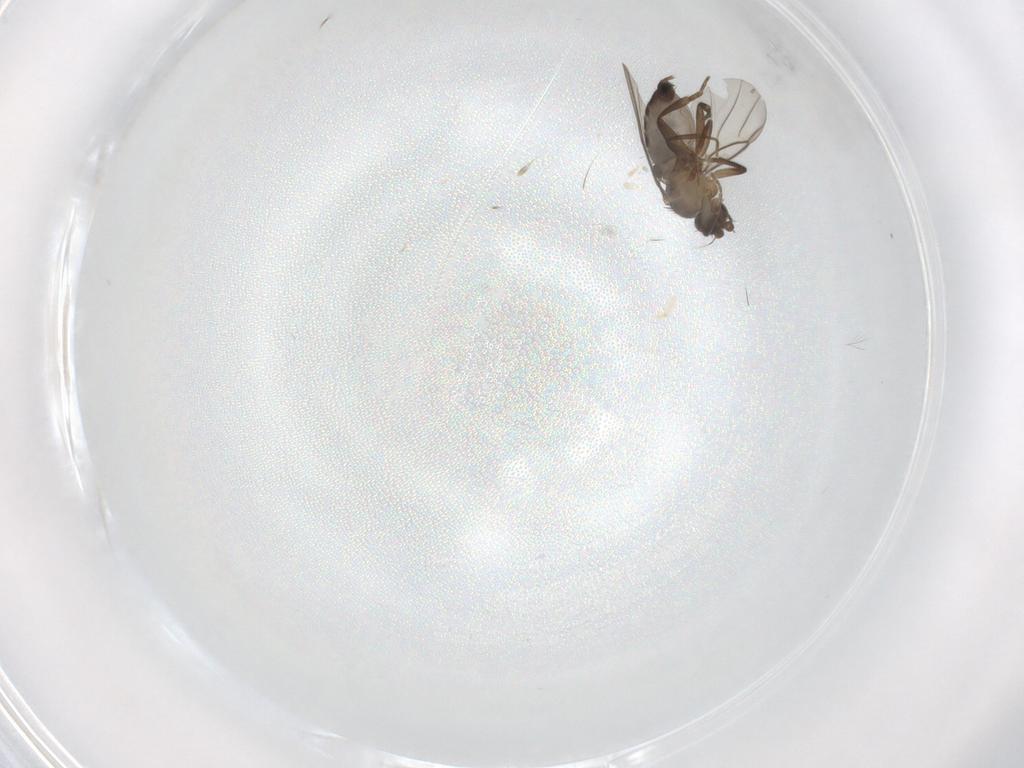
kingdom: Animalia
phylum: Arthropoda
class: Insecta
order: Diptera
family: Phoridae
